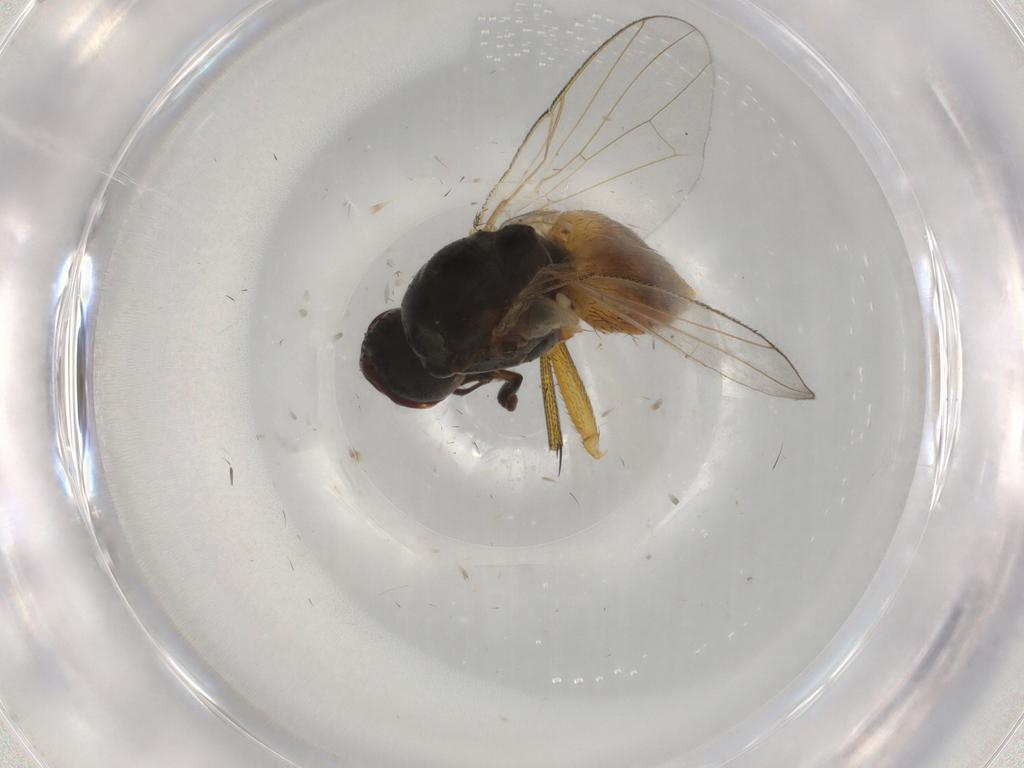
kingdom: Animalia
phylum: Arthropoda
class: Insecta
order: Diptera
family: Muscidae
